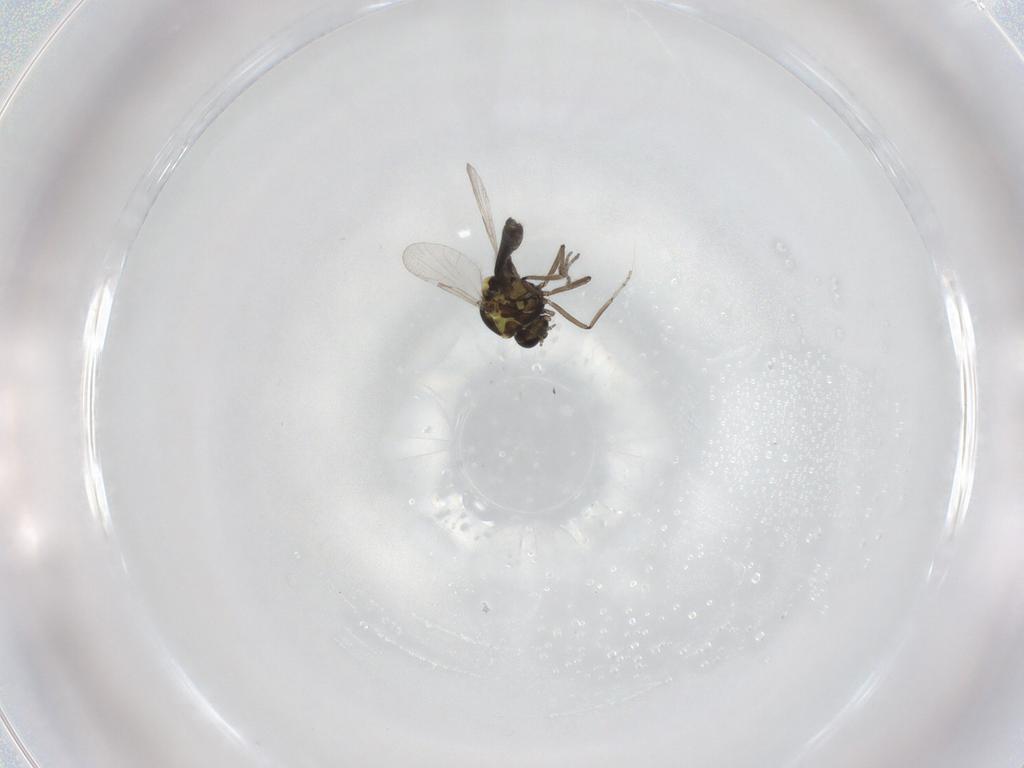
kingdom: Animalia
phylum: Arthropoda
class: Insecta
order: Diptera
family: Ceratopogonidae
